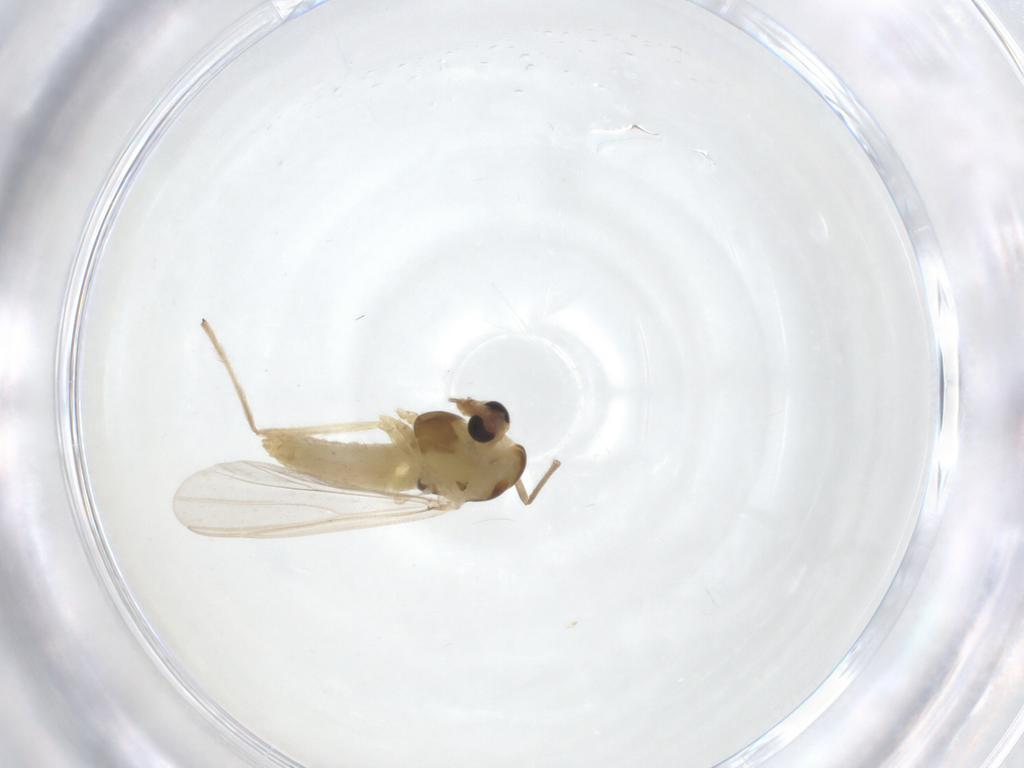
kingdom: Animalia
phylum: Arthropoda
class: Insecta
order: Diptera
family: Chironomidae
